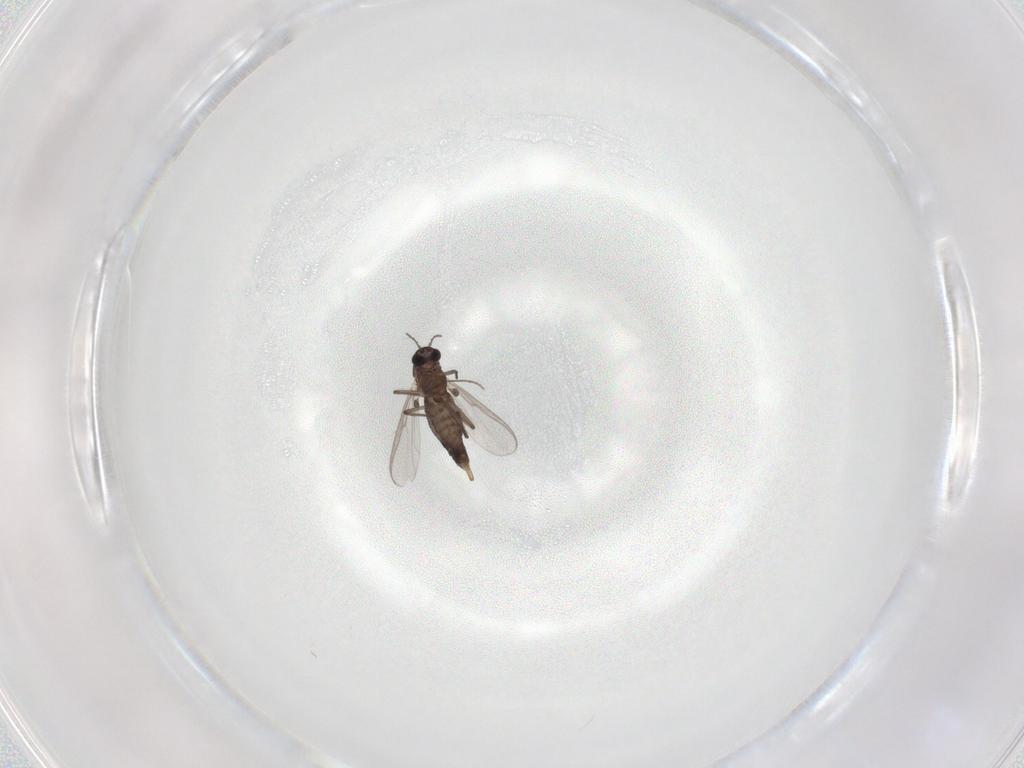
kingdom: Animalia
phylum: Arthropoda
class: Insecta
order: Diptera
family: Chironomidae
